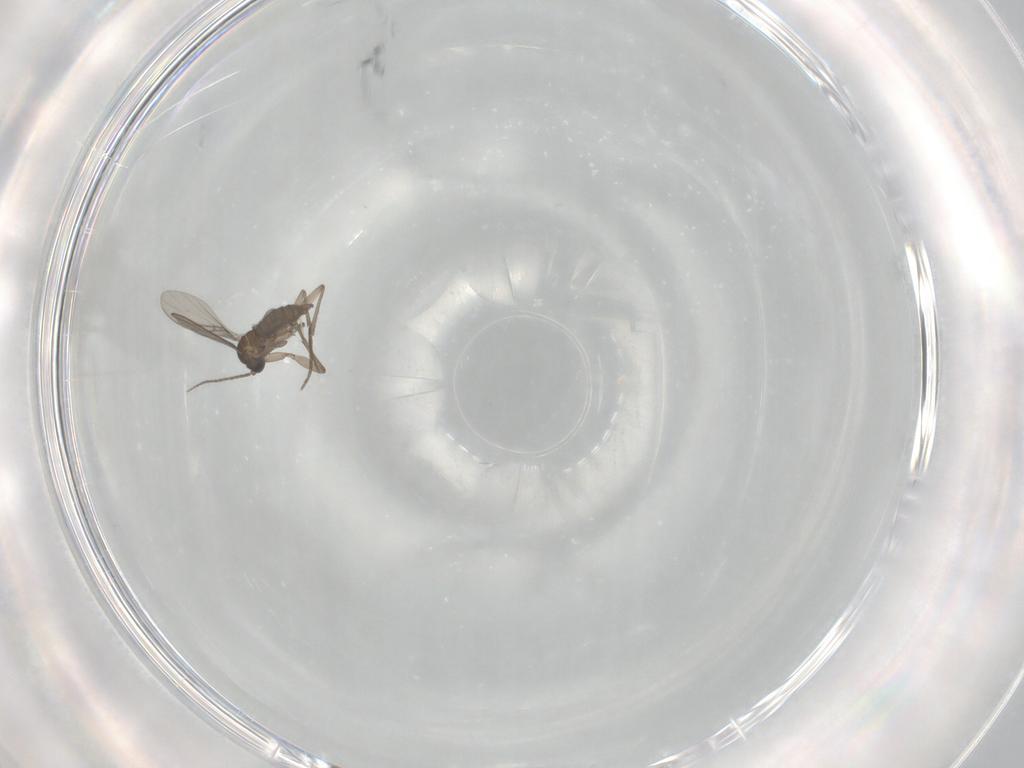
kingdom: Animalia
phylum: Arthropoda
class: Insecta
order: Diptera
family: Sciaridae
